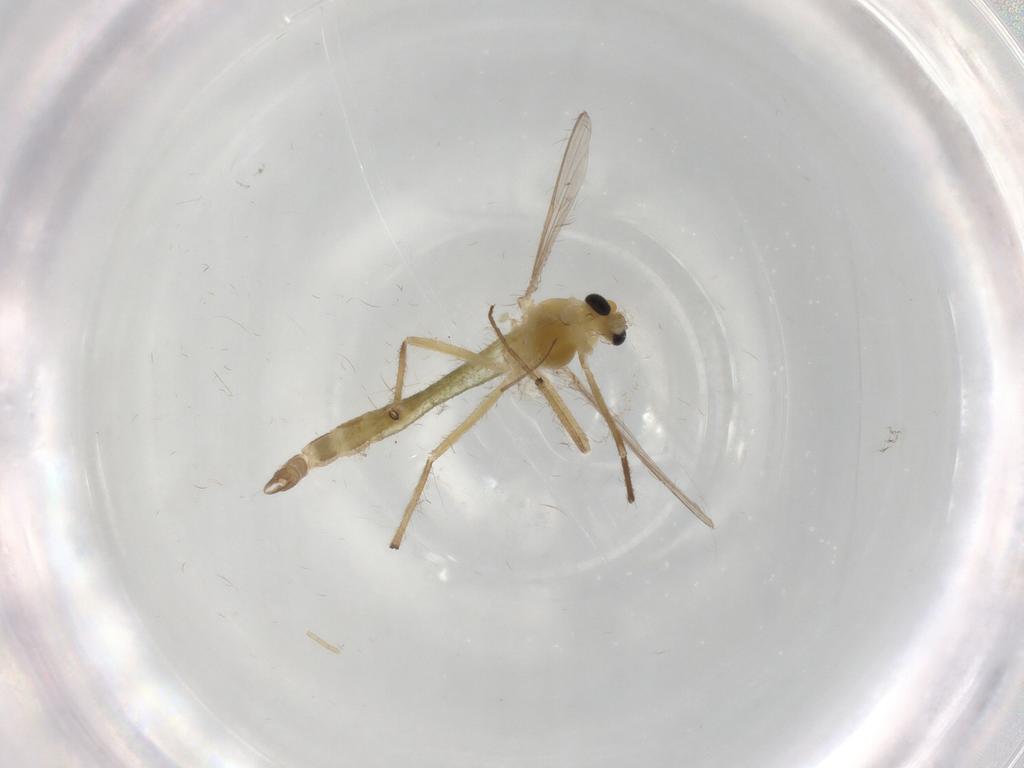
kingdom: Animalia
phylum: Arthropoda
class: Insecta
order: Diptera
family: Chironomidae
